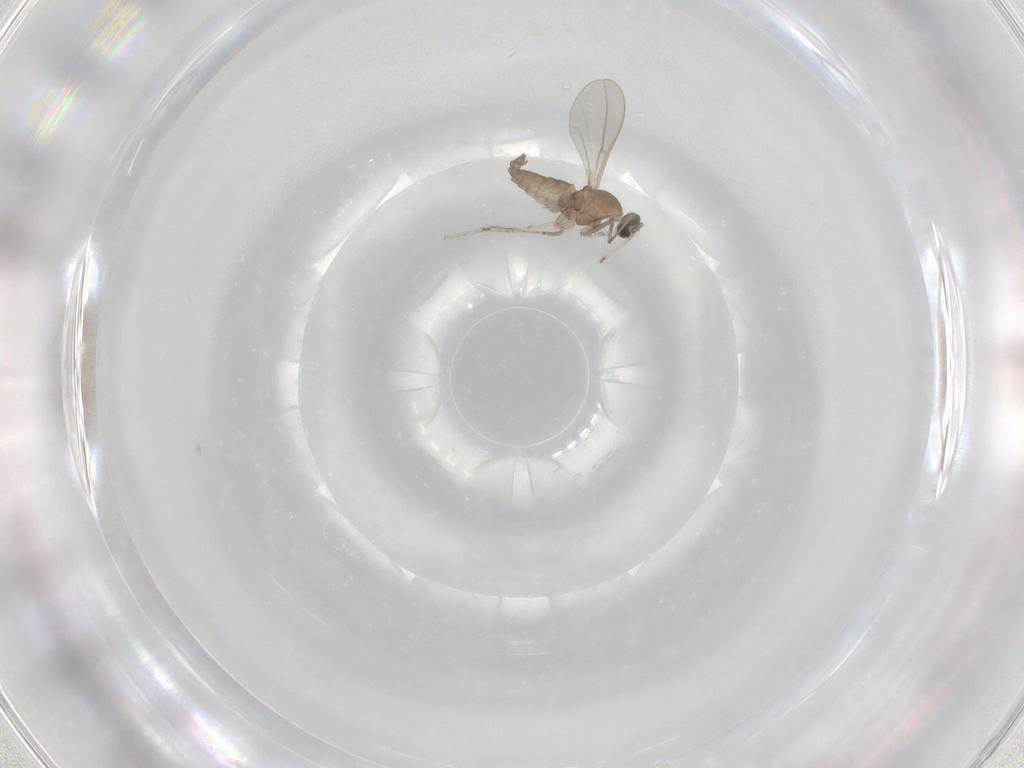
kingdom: Animalia
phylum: Arthropoda
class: Insecta
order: Diptera
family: Cecidomyiidae
